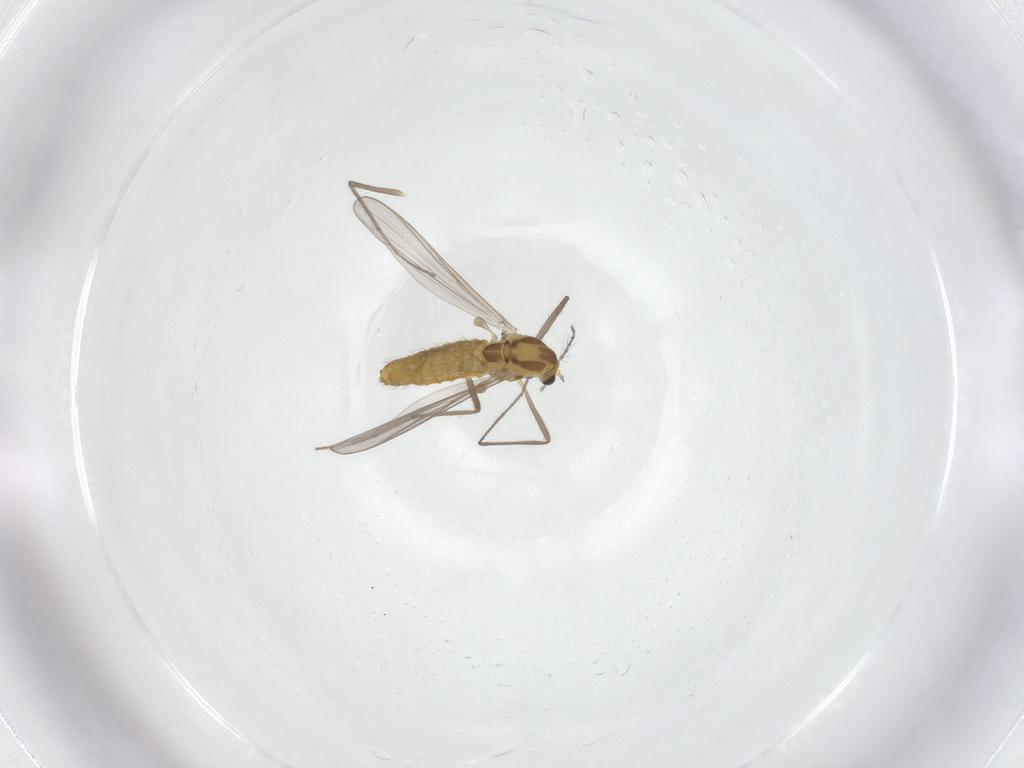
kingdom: Animalia
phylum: Arthropoda
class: Insecta
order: Diptera
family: Chironomidae
